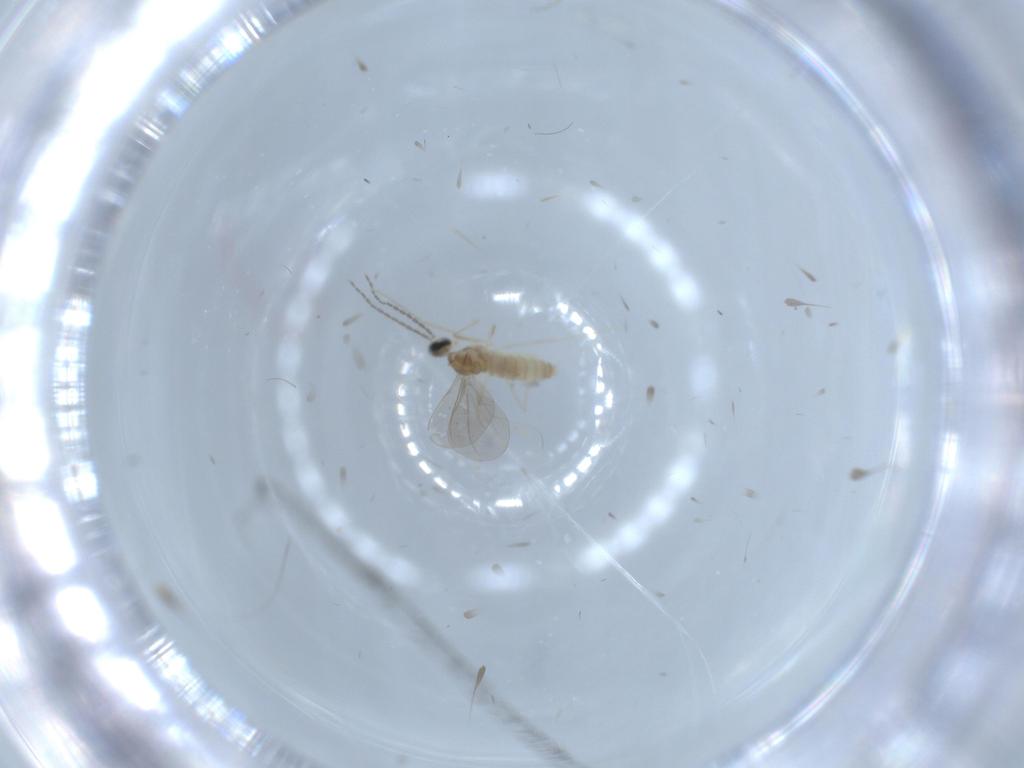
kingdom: Animalia
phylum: Arthropoda
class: Insecta
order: Diptera
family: Cecidomyiidae
